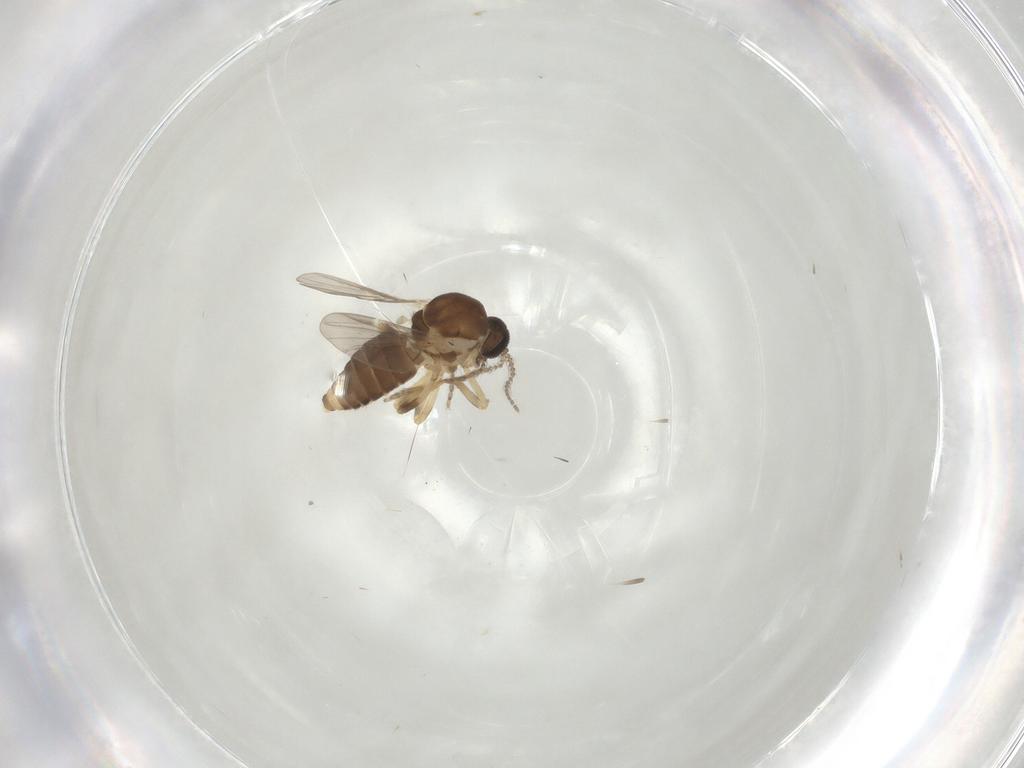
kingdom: Animalia
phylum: Arthropoda
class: Insecta
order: Diptera
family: Ceratopogonidae
